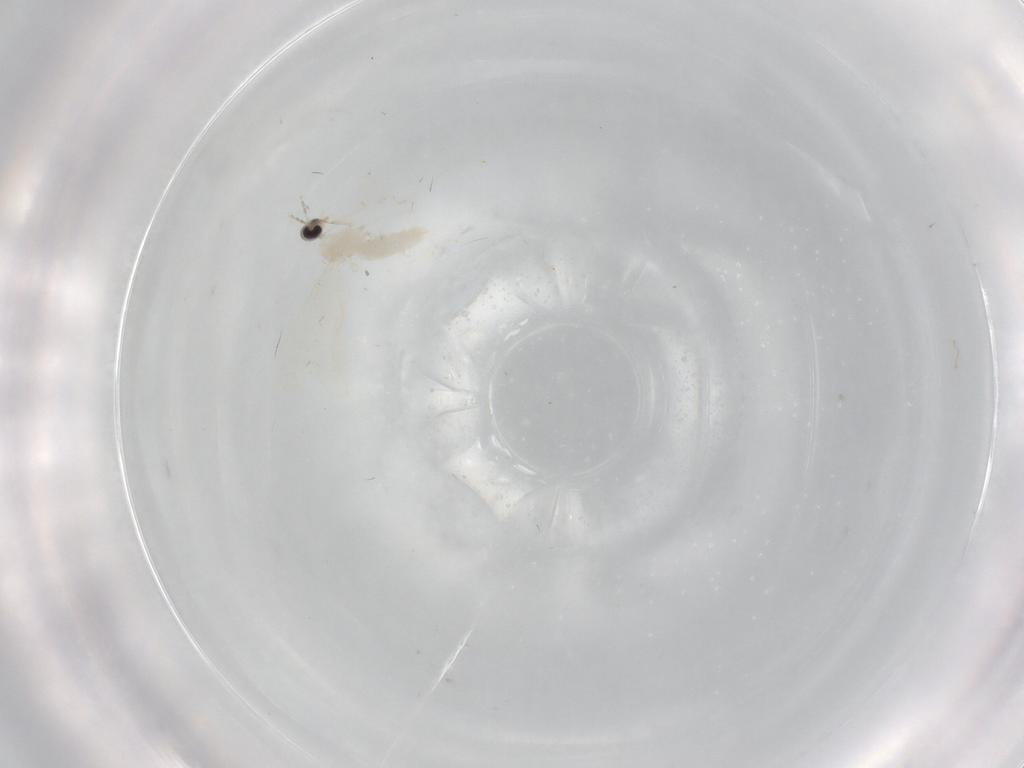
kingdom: Animalia
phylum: Arthropoda
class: Insecta
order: Diptera
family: Cecidomyiidae
